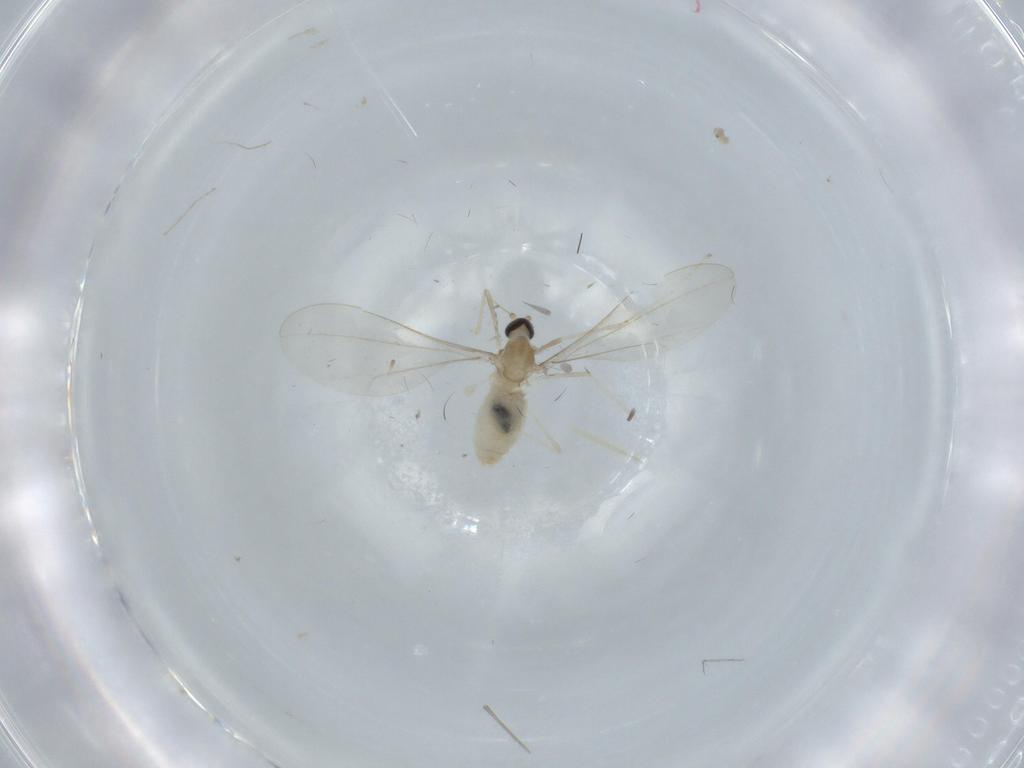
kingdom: Animalia
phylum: Arthropoda
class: Insecta
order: Diptera
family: Cecidomyiidae
